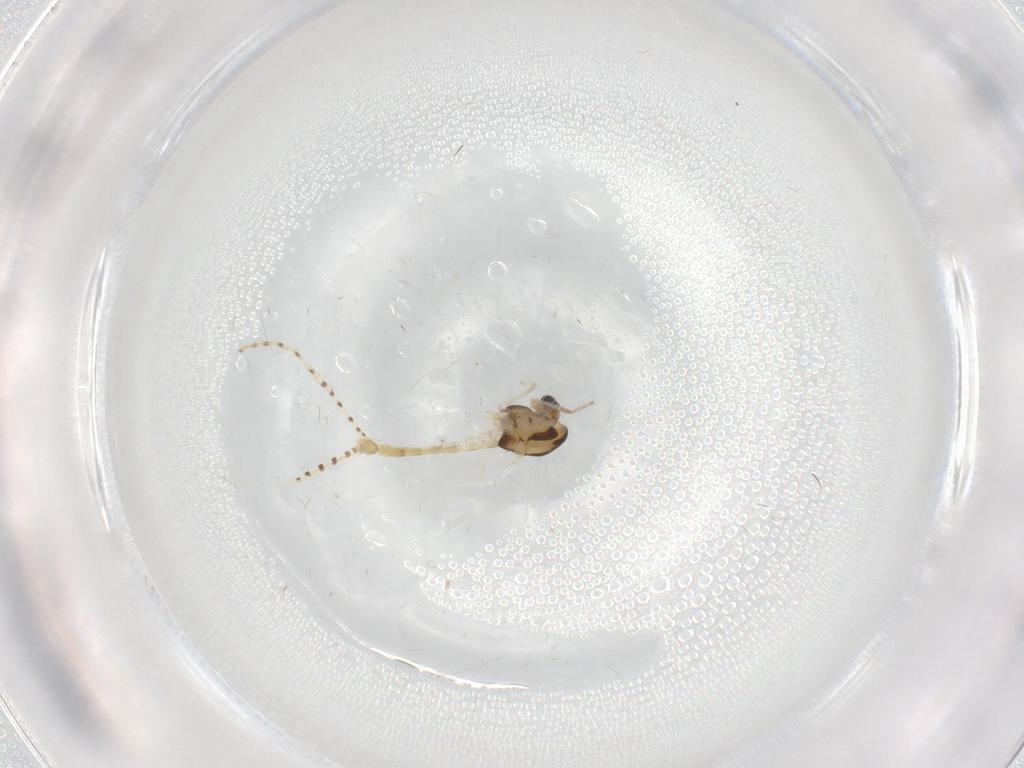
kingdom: Animalia
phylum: Arthropoda
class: Insecta
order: Diptera
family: Chironomidae
